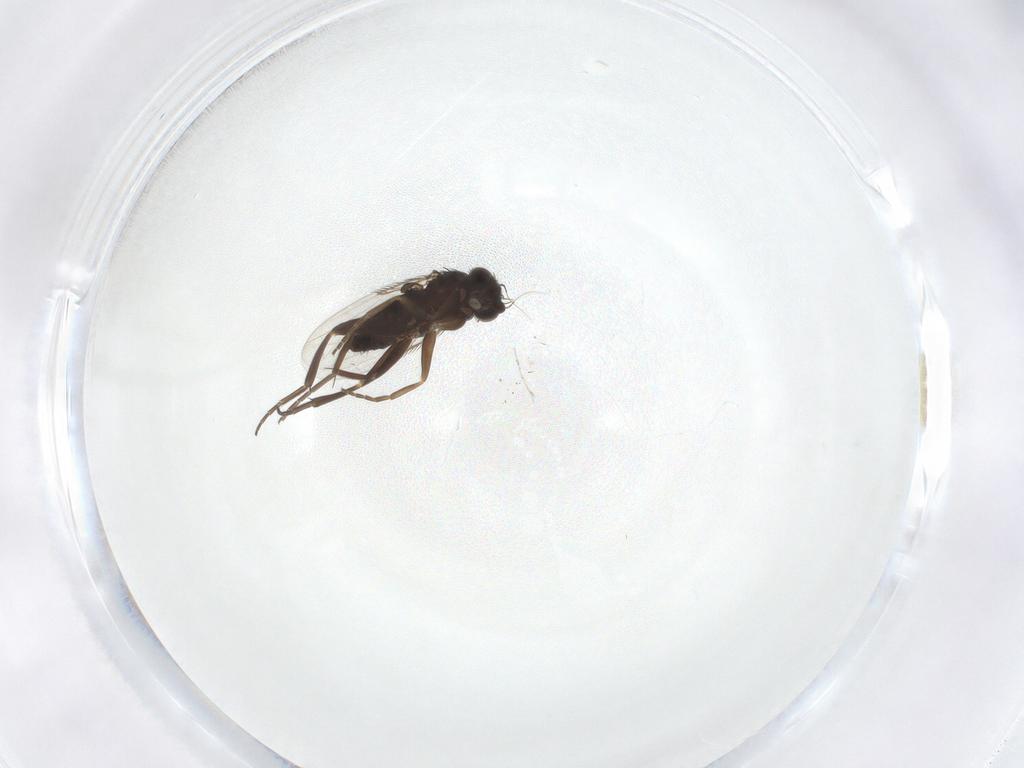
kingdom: Animalia
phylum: Arthropoda
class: Insecta
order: Diptera
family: Phoridae
